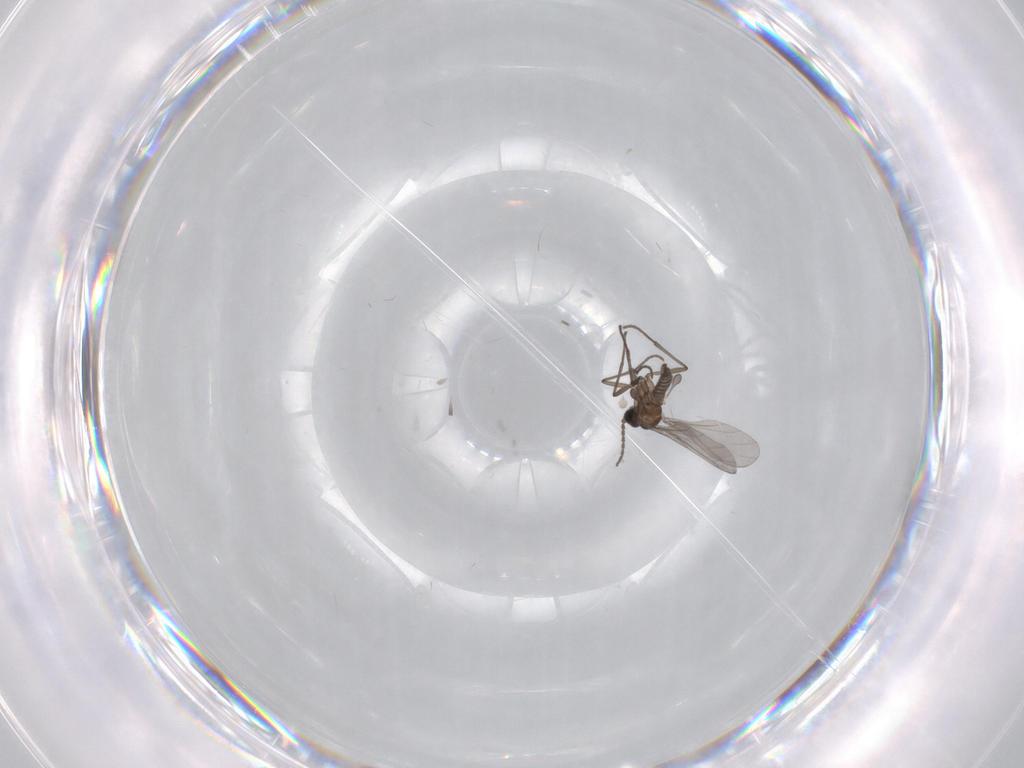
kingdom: Animalia
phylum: Arthropoda
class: Insecta
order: Diptera
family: Sciaridae
